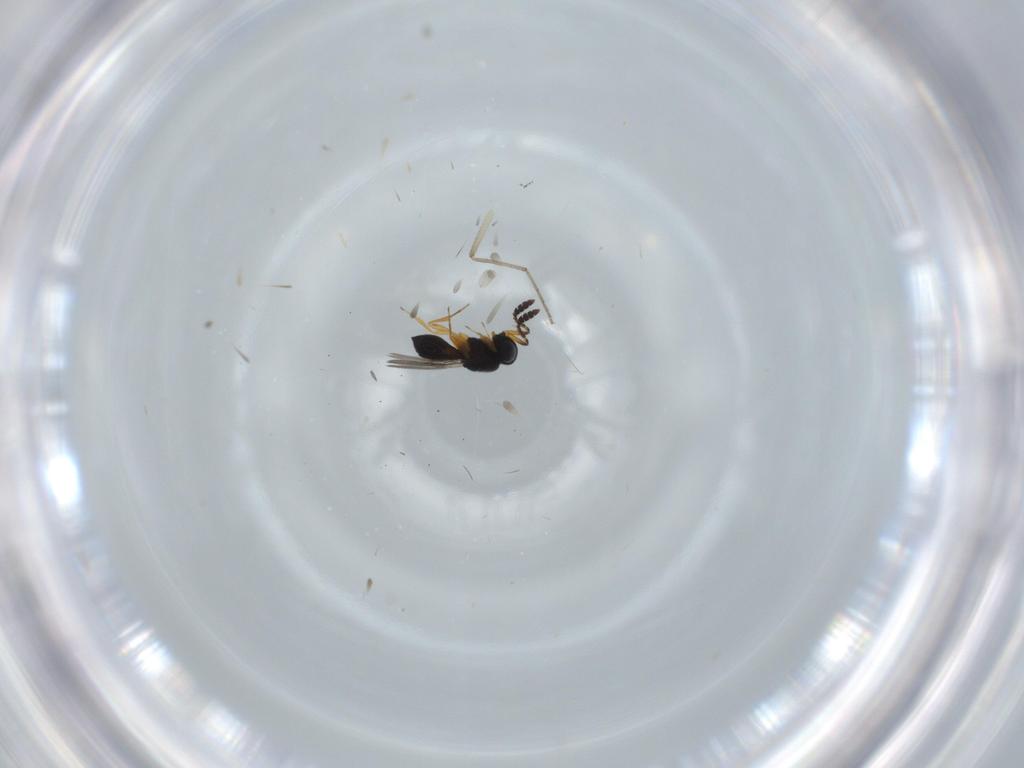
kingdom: Animalia
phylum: Arthropoda
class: Insecta
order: Hymenoptera
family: Scelionidae
